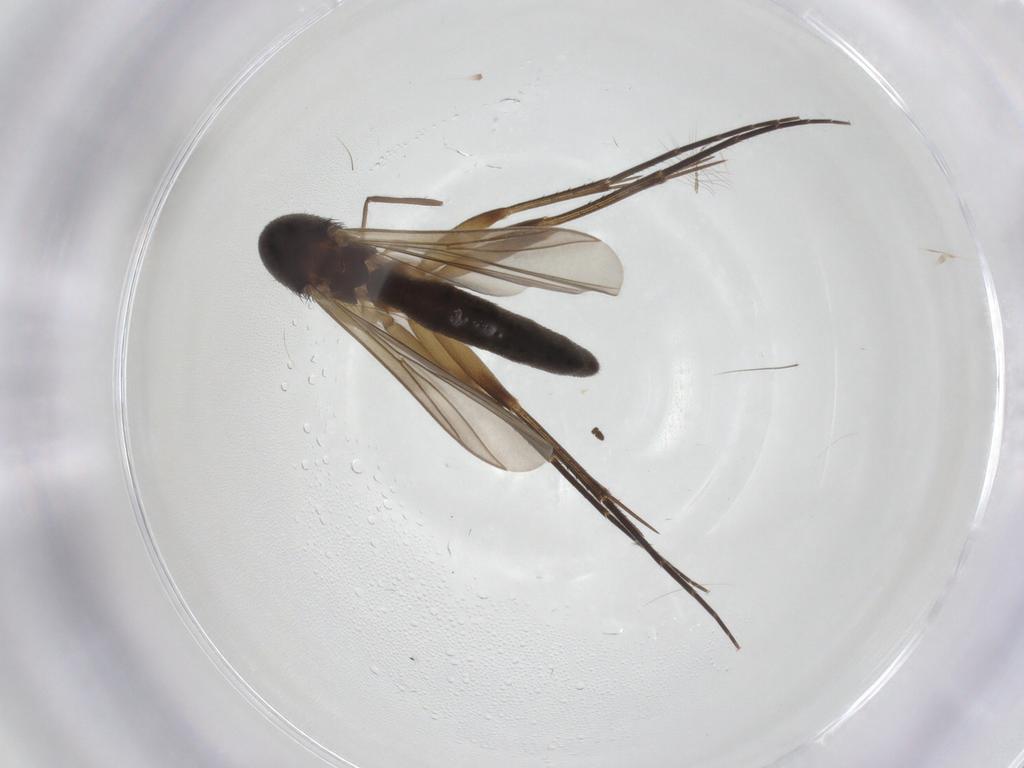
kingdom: Animalia
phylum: Arthropoda
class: Insecta
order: Diptera
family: Mycetophilidae
